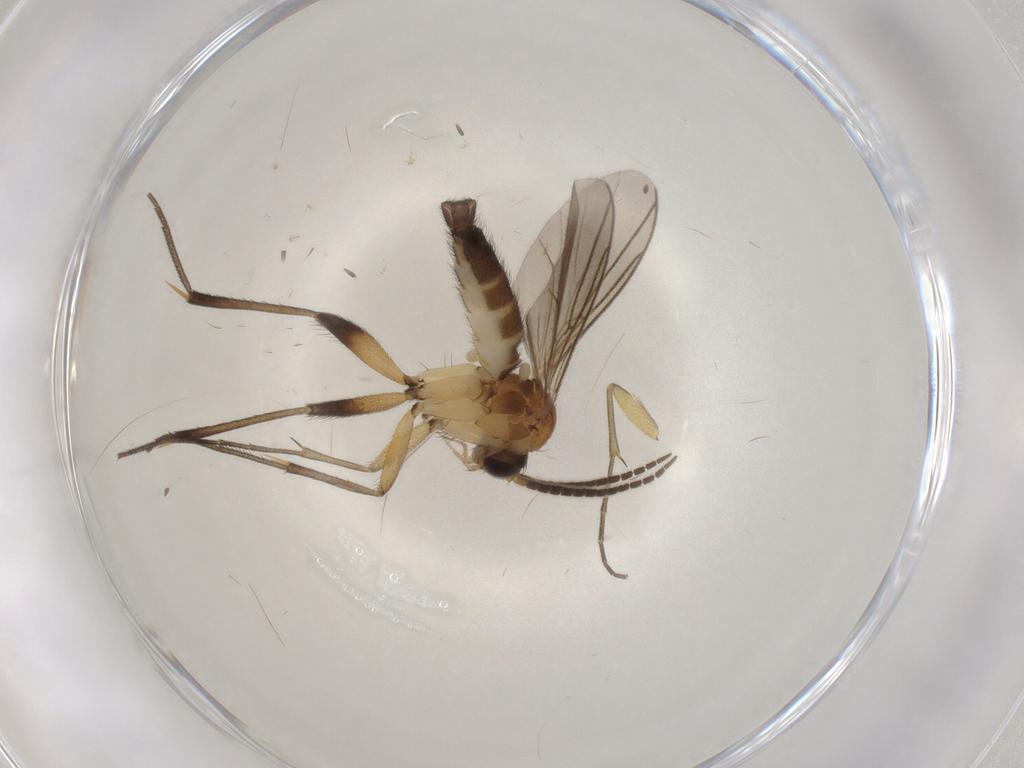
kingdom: Animalia
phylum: Arthropoda
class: Insecta
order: Diptera
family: Mycetophilidae
